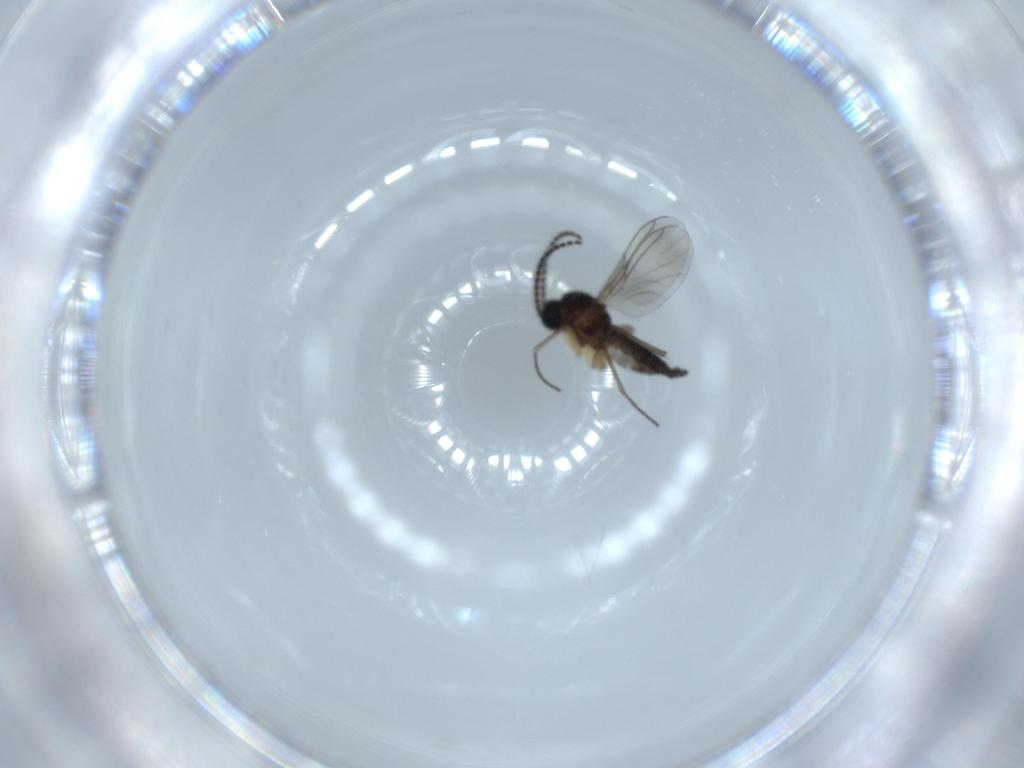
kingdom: Animalia
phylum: Arthropoda
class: Insecta
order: Diptera
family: Sciaridae
